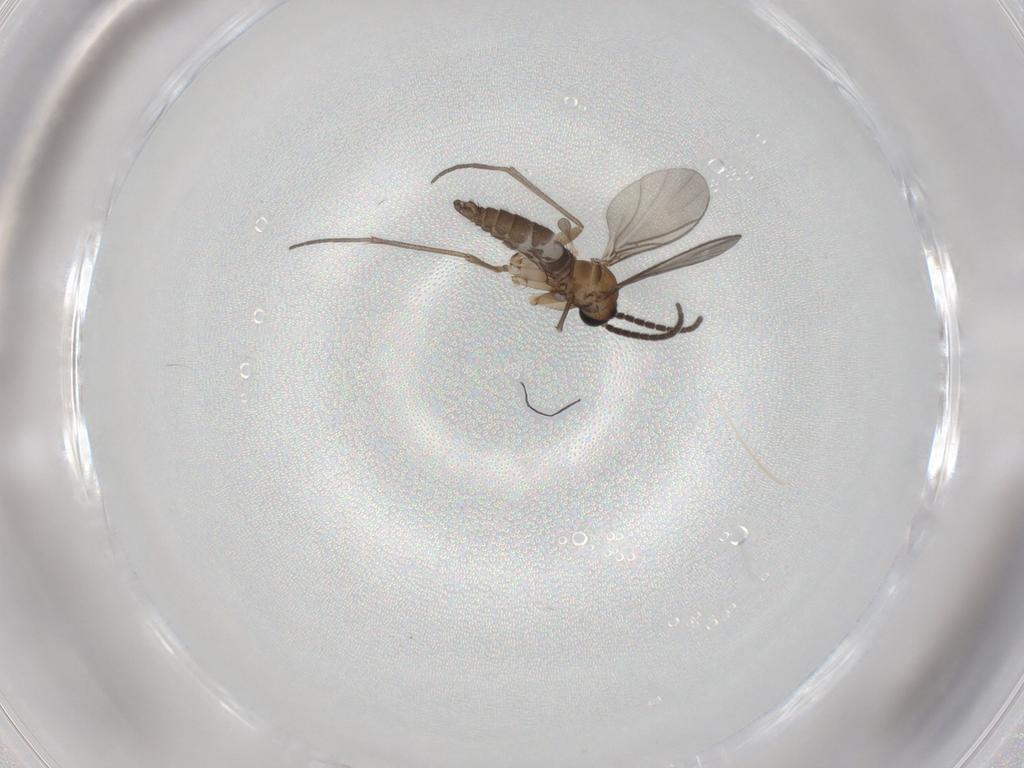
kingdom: Animalia
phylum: Arthropoda
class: Insecta
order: Diptera
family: Sciaridae
